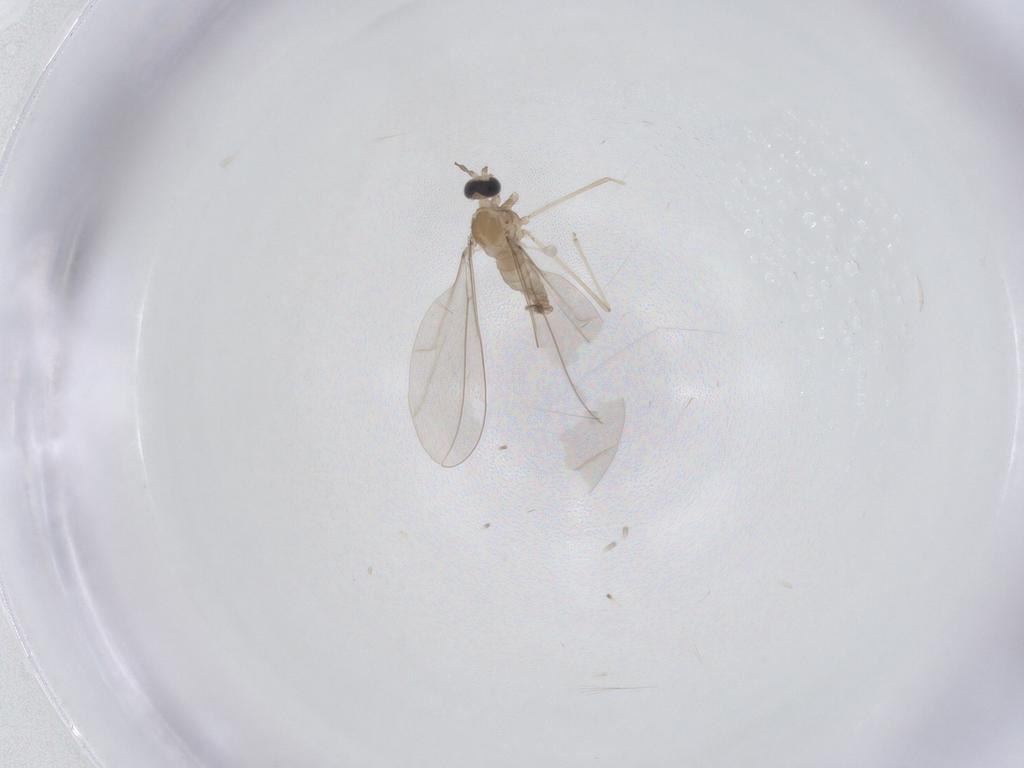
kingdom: Animalia
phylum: Arthropoda
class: Insecta
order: Diptera
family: Cecidomyiidae
